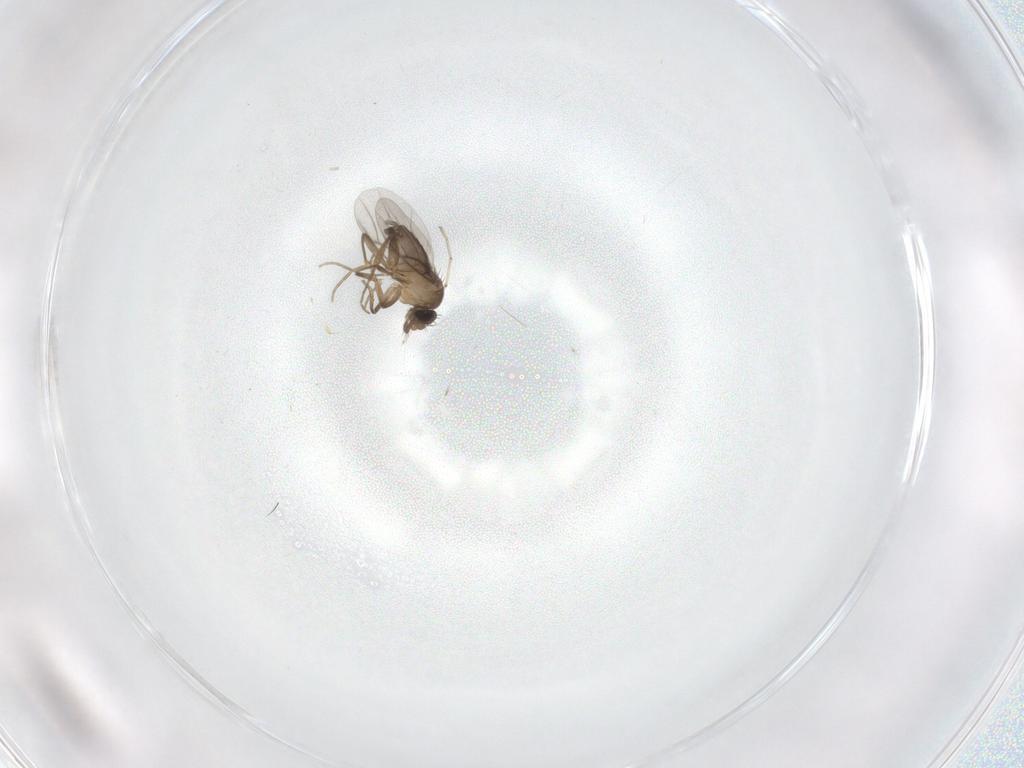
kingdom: Animalia
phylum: Arthropoda
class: Insecta
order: Diptera
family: Cecidomyiidae
